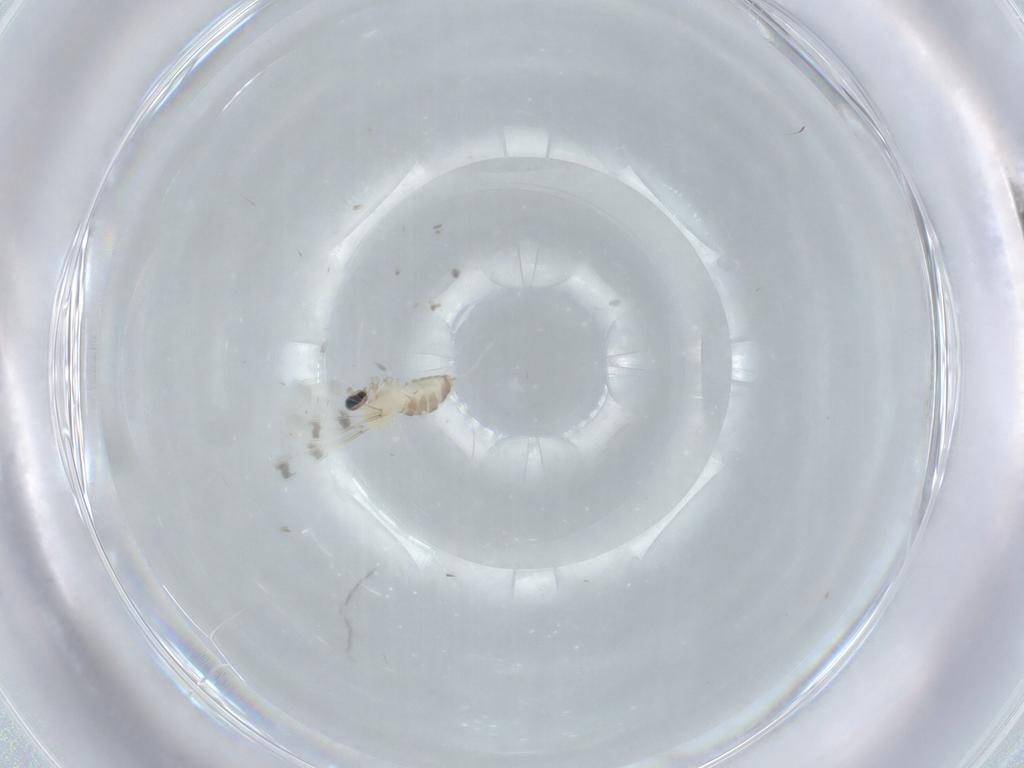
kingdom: Animalia
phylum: Arthropoda
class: Insecta
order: Diptera
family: Cecidomyiidae
